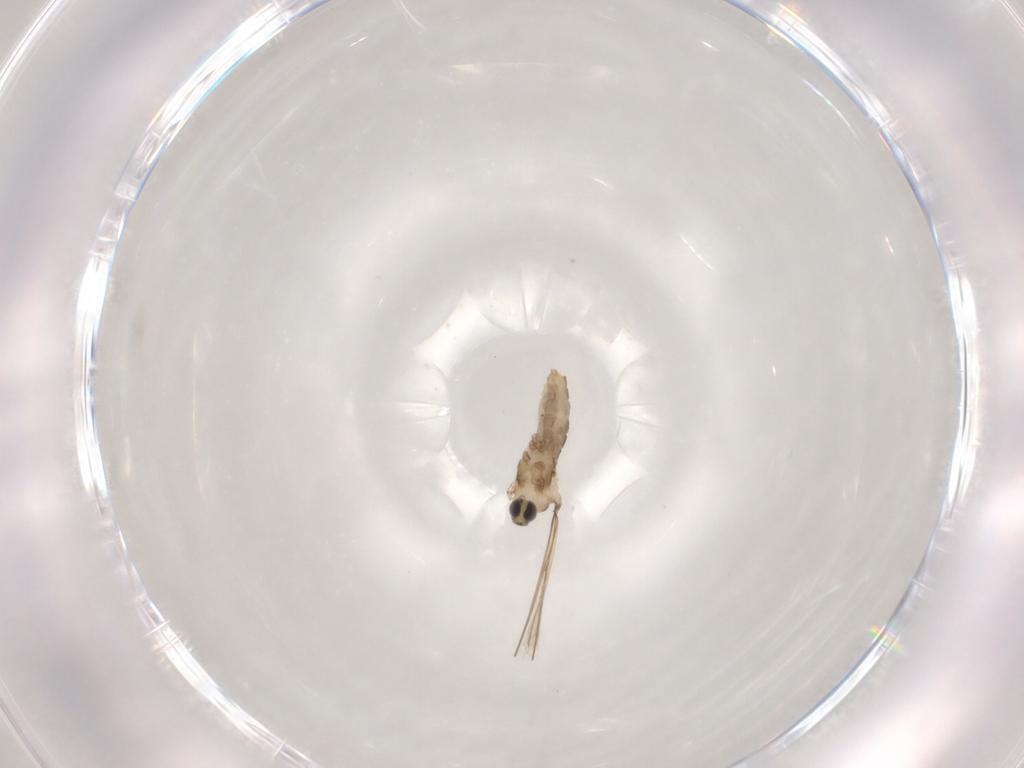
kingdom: Animalia
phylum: Arthropoda
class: Insecta
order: Diptera
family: Cecidomyiidae
